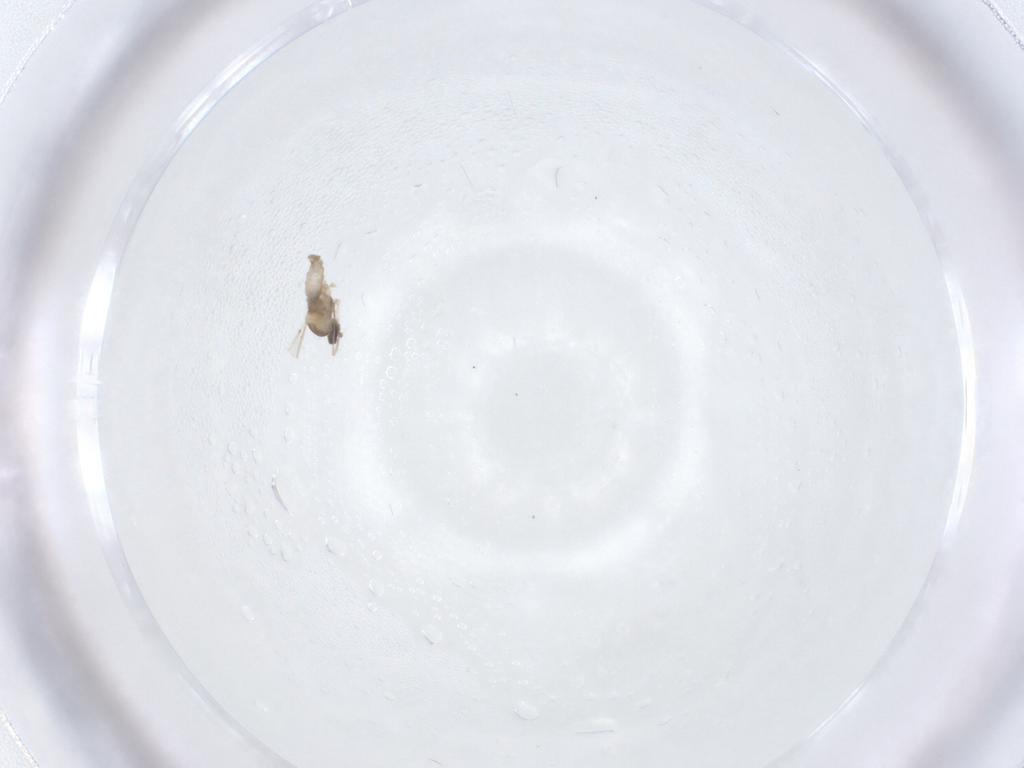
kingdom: Animalia
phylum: Arthropoda
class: Insecta
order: Diptera
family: Cecidomyiidae
